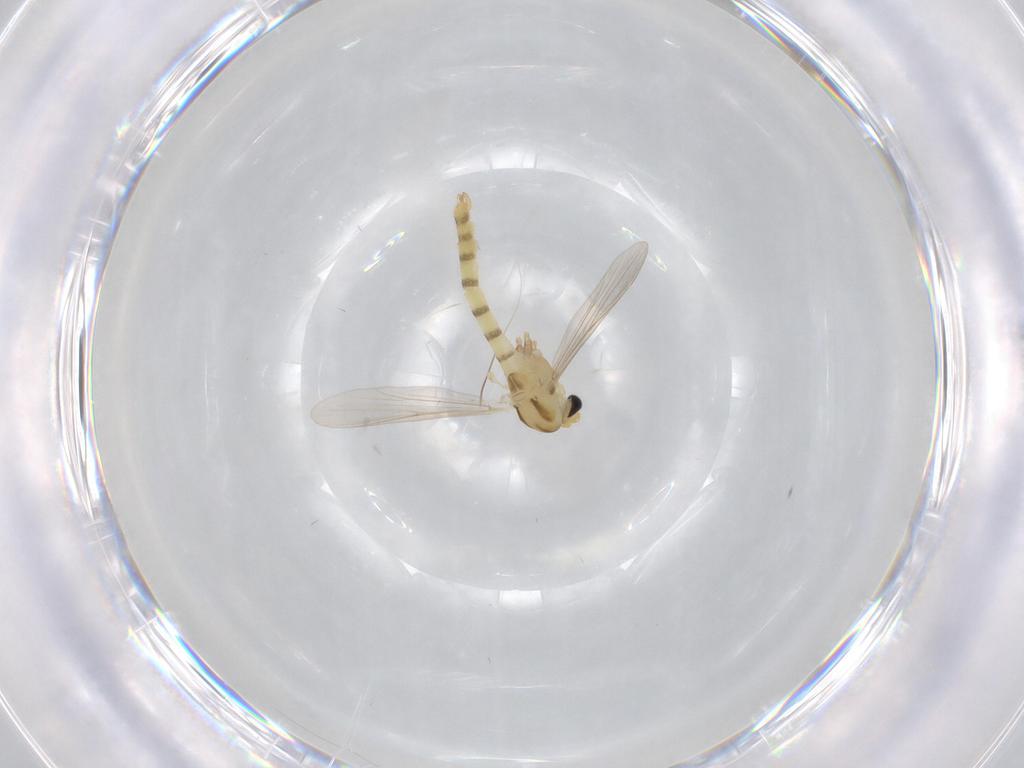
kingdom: Animalia
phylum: Arthropoda
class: Insecta
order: Diptera
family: Chironomidae
